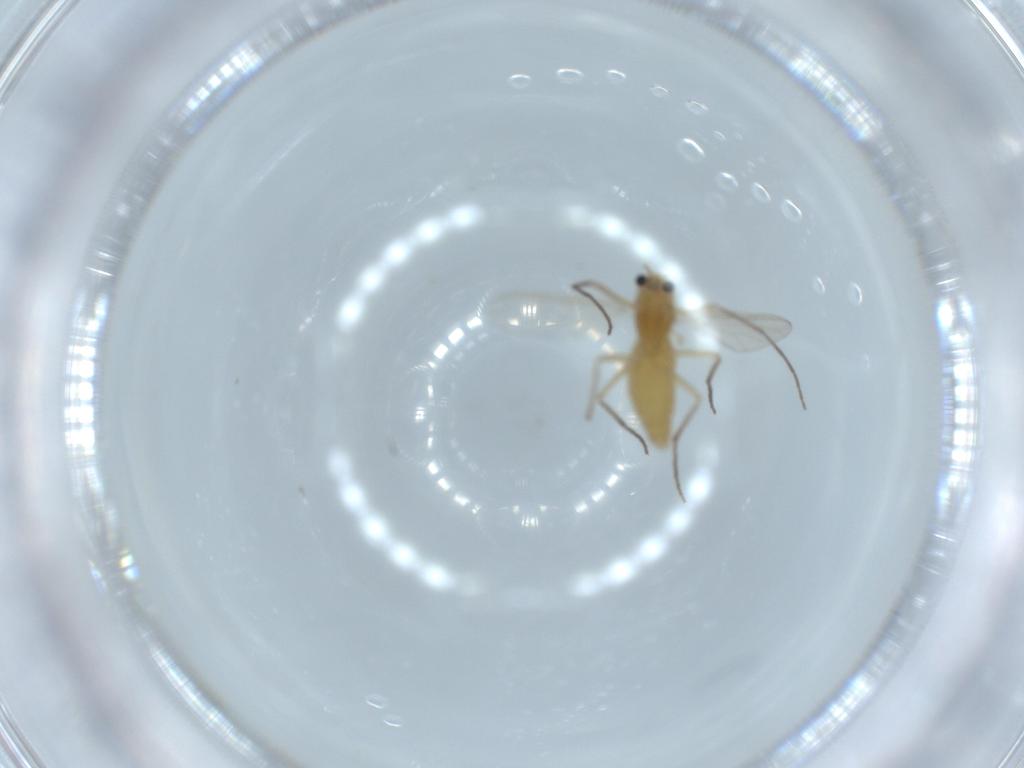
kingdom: Animalia
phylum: Arthropoda
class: Insecta
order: Diptera
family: Chironomidae
